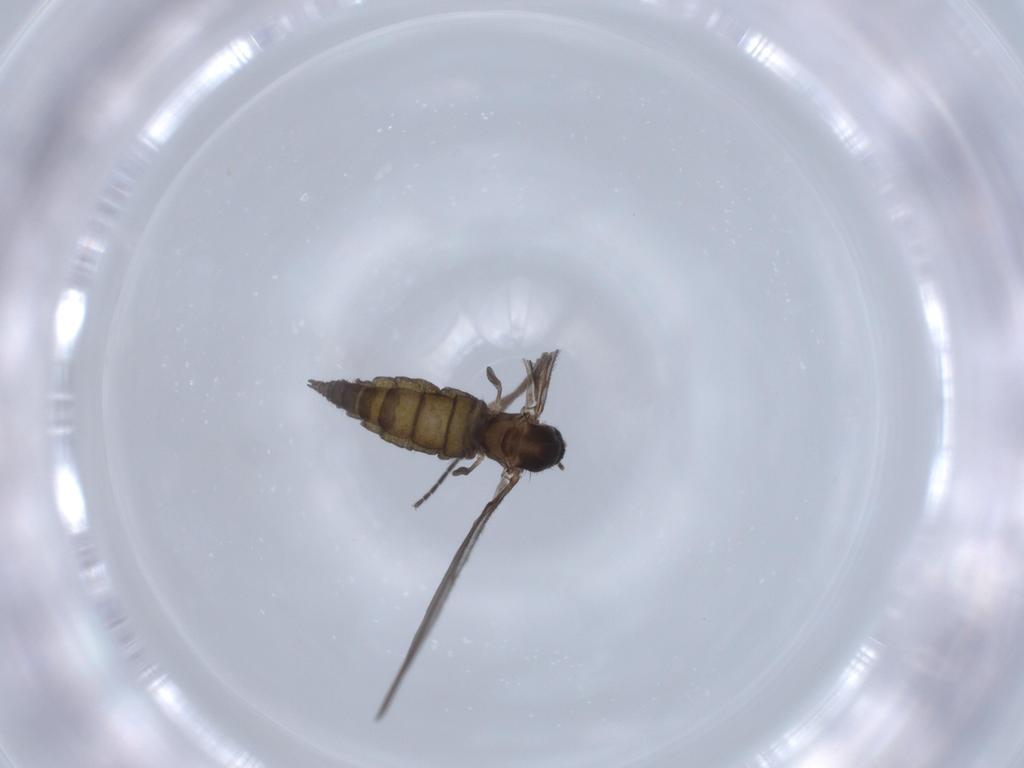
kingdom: Animalia
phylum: Arthropoda
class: Insecta
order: Diptera
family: Sciaridae
